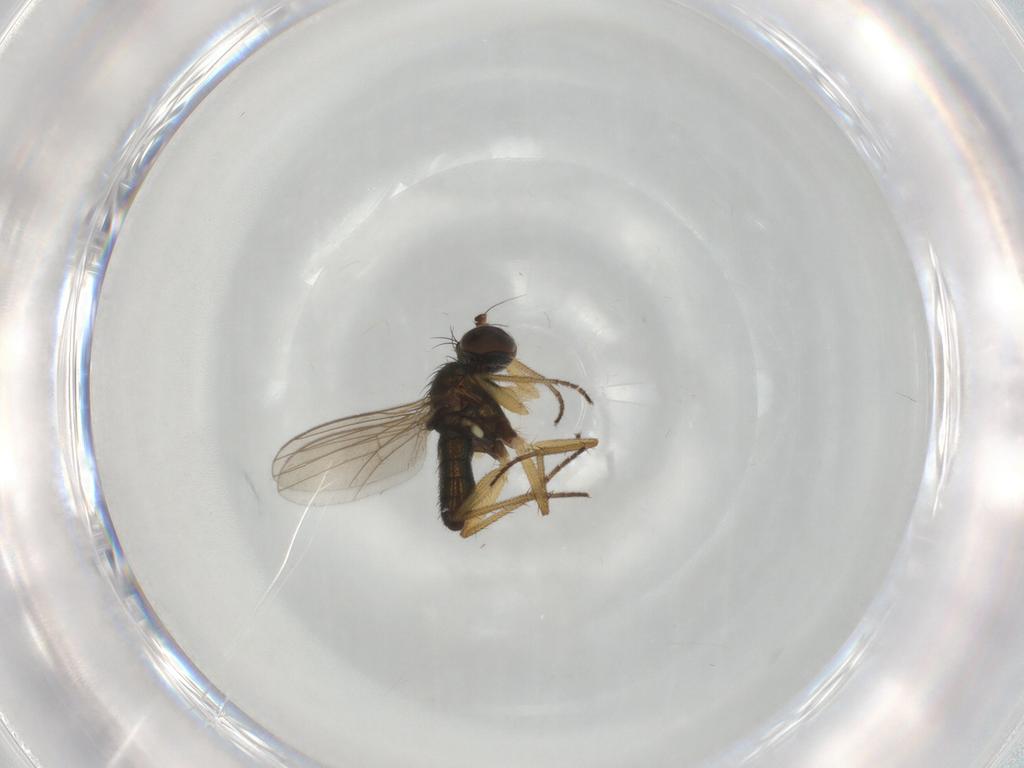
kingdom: Animalia
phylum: Arthropoda
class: Insecta
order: Diptera
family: Dolichopodidae
